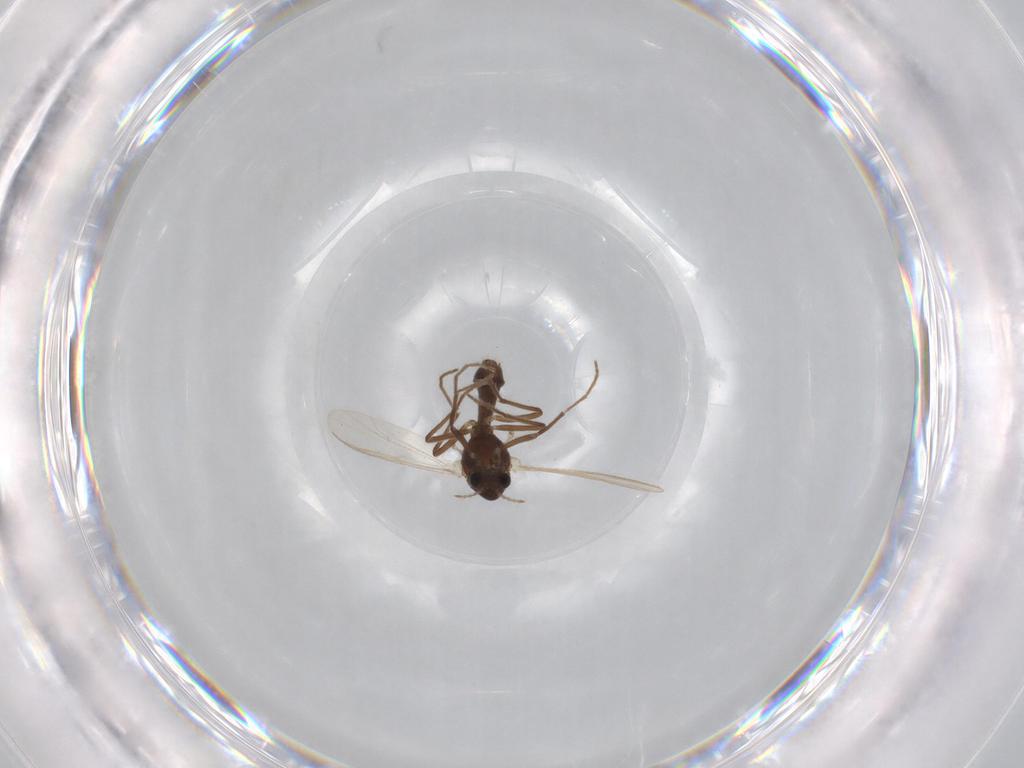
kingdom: Animalia
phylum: Arthropoda
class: Insecta
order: Diptera
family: Chironomidae
